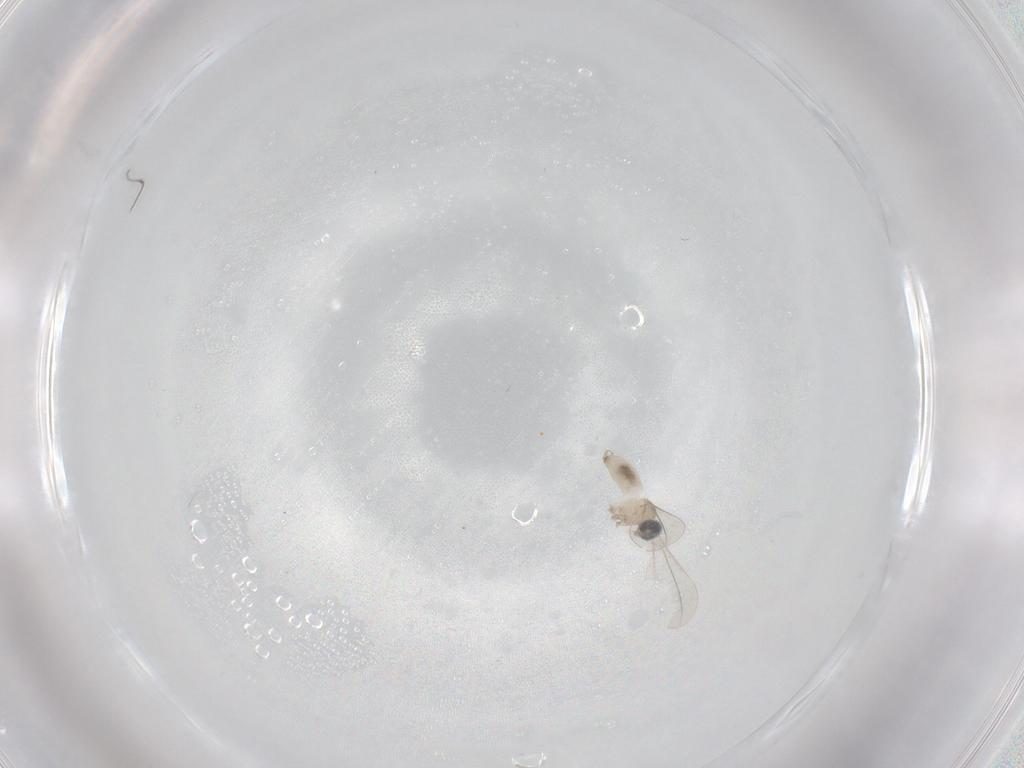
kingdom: Animalia
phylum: Arthropoda
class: Insecta
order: Diptera
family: Cecidomyiidae
